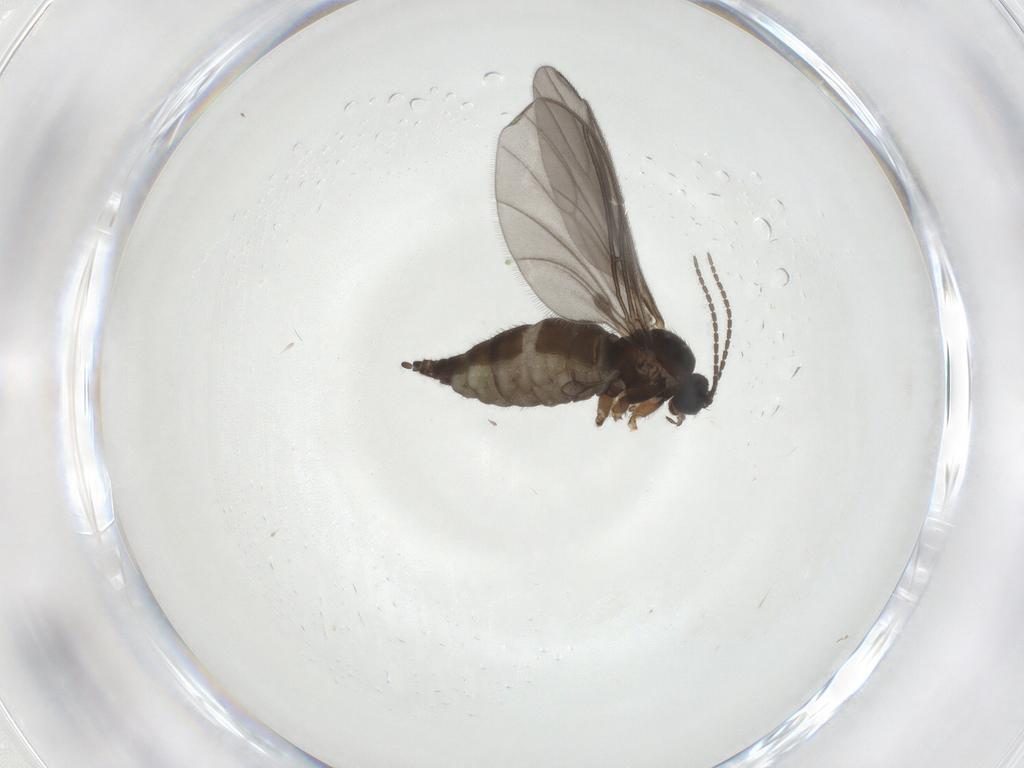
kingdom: Animalia
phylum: Arthropoda
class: Insecta
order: Diptera
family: Sciaridae
